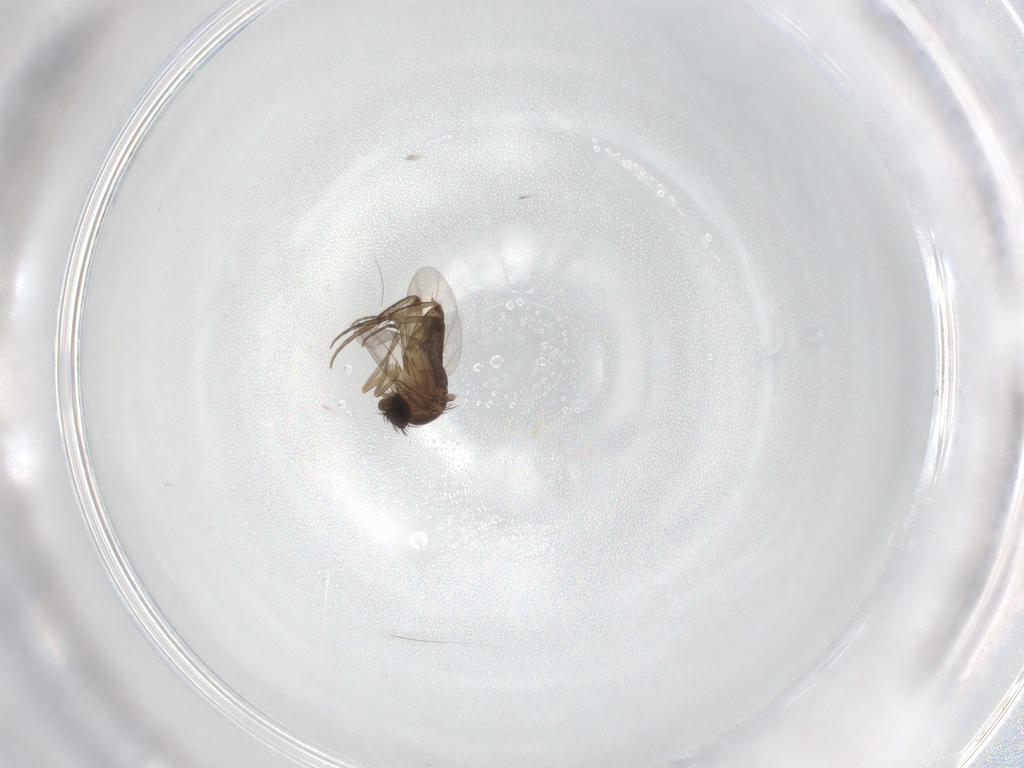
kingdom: Animalia
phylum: Arthropoda
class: Insecta
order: Diptera
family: Phoridae
